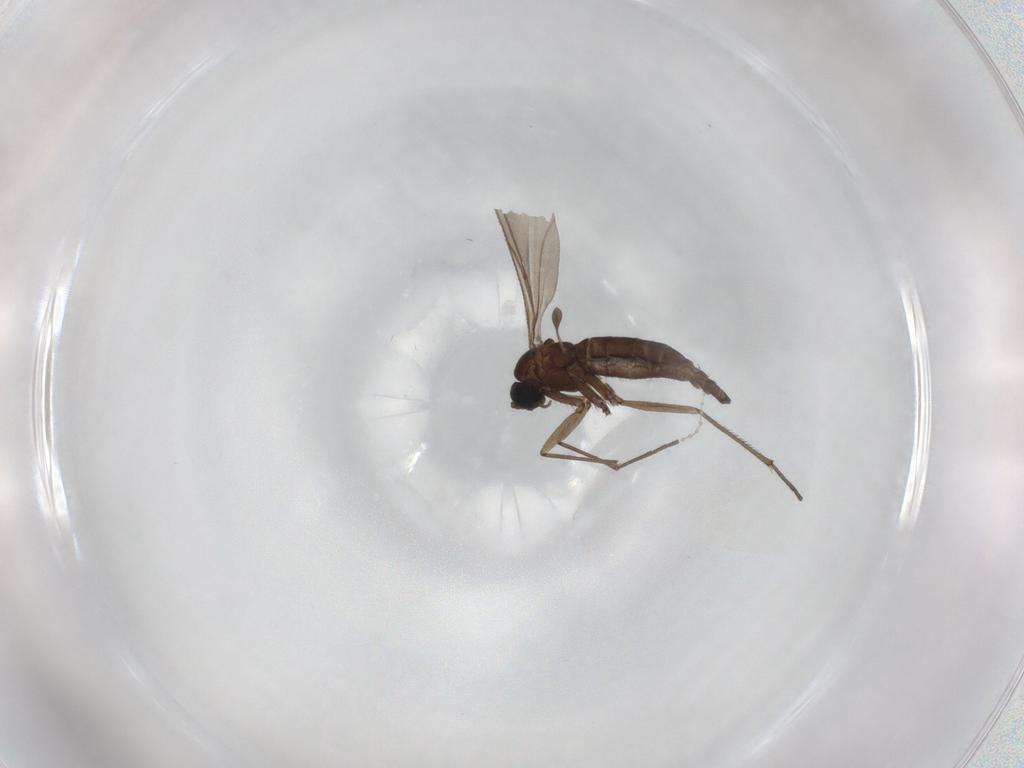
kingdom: Animalia
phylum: Arthropoda
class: Insecta
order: Diptera
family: Sciaridae
